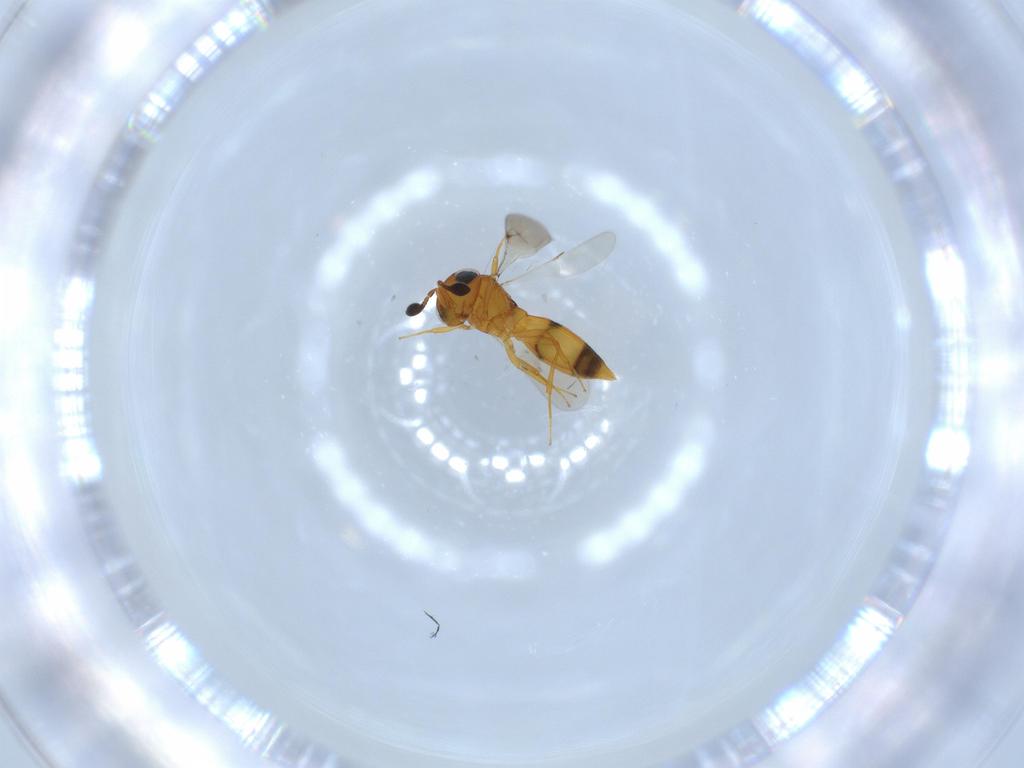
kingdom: Animalia
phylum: Arthropoda
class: Insecta
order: Hymenoptera
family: Scelionidae
